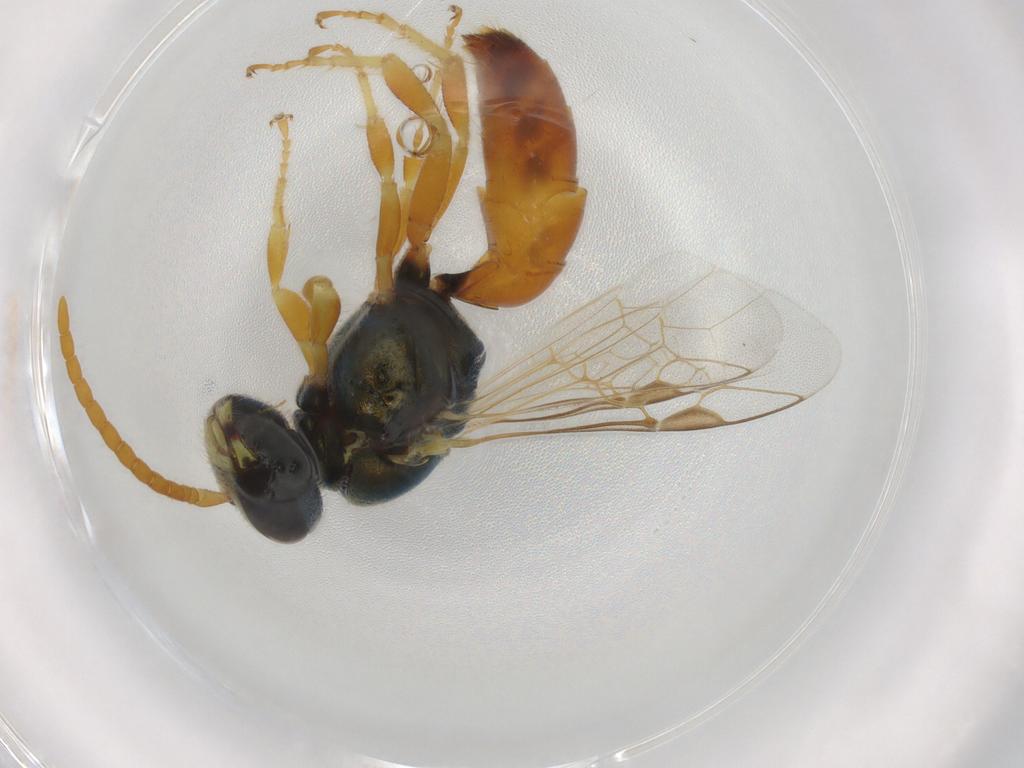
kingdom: Animalia
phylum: Arthropoda
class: Insecta
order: Hymenoptera
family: Halictidae
